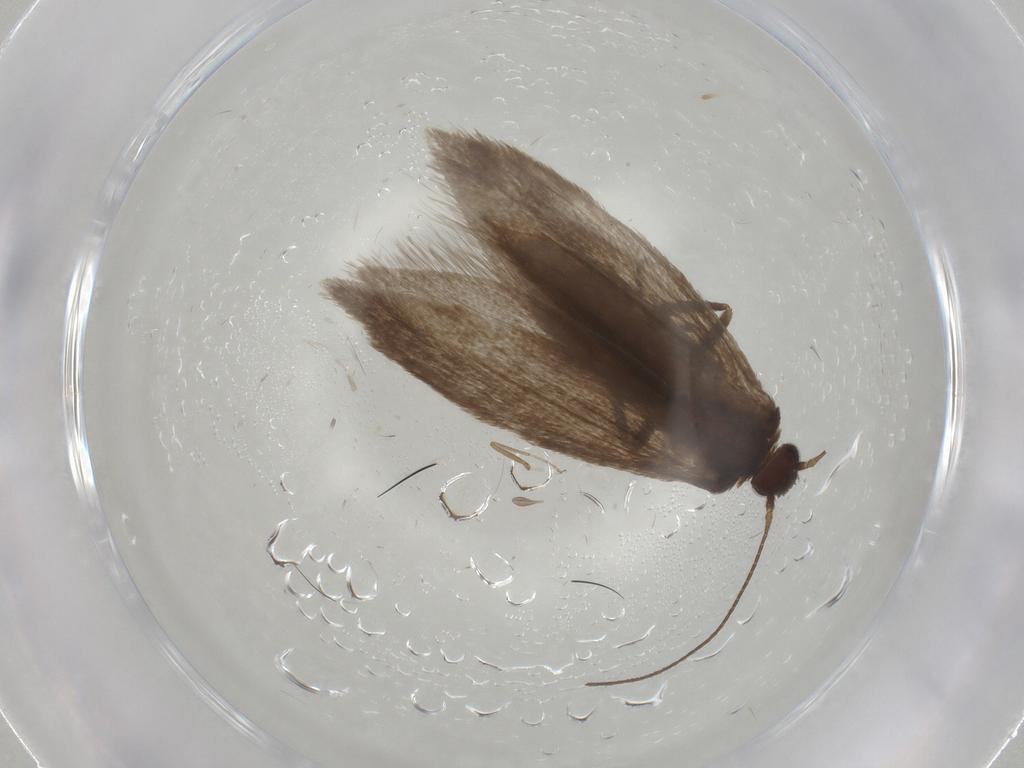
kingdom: Animalia
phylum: Arthropoda
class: Insecta
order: Lepidoptera
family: Limacodidae
